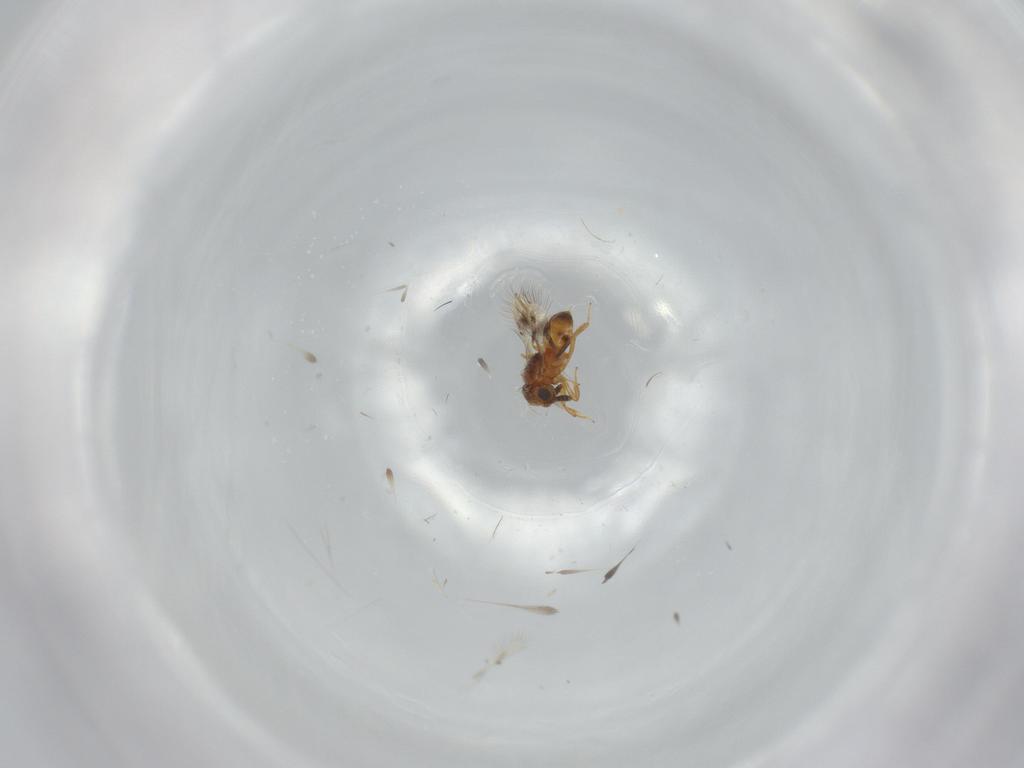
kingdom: Animalia
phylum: Arthropoda
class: Insecta
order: Hymenoptera
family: Scelionidae
